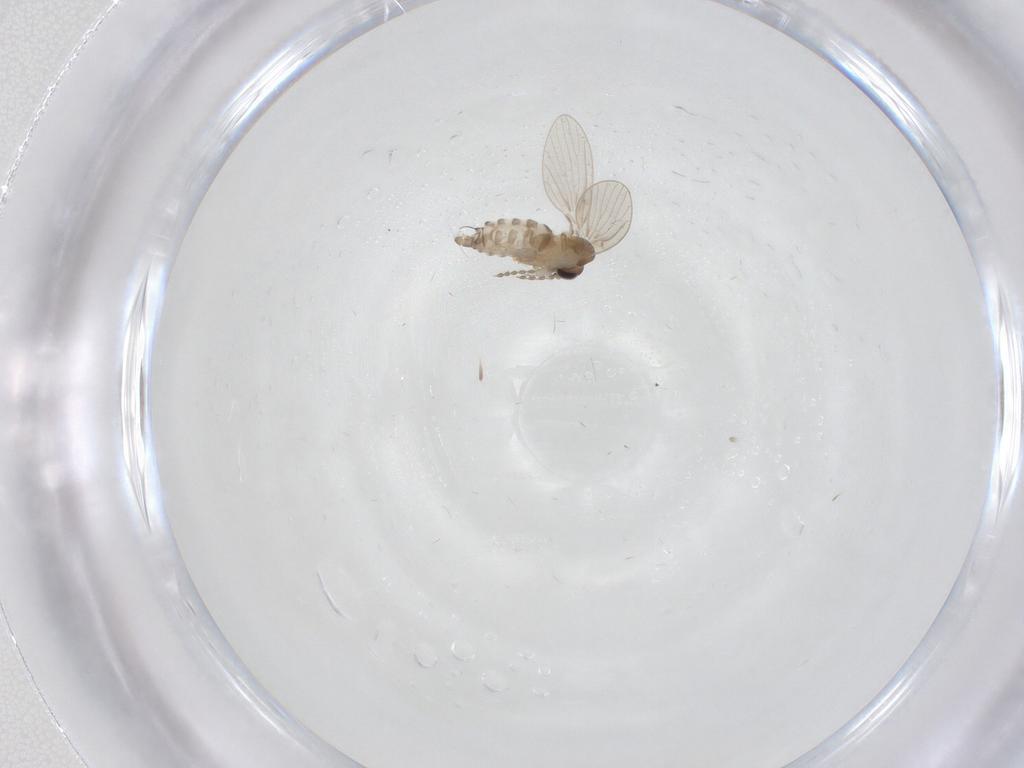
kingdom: Animalia
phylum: Arthropoda
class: Insecta
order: Diptera
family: Psychodidae
